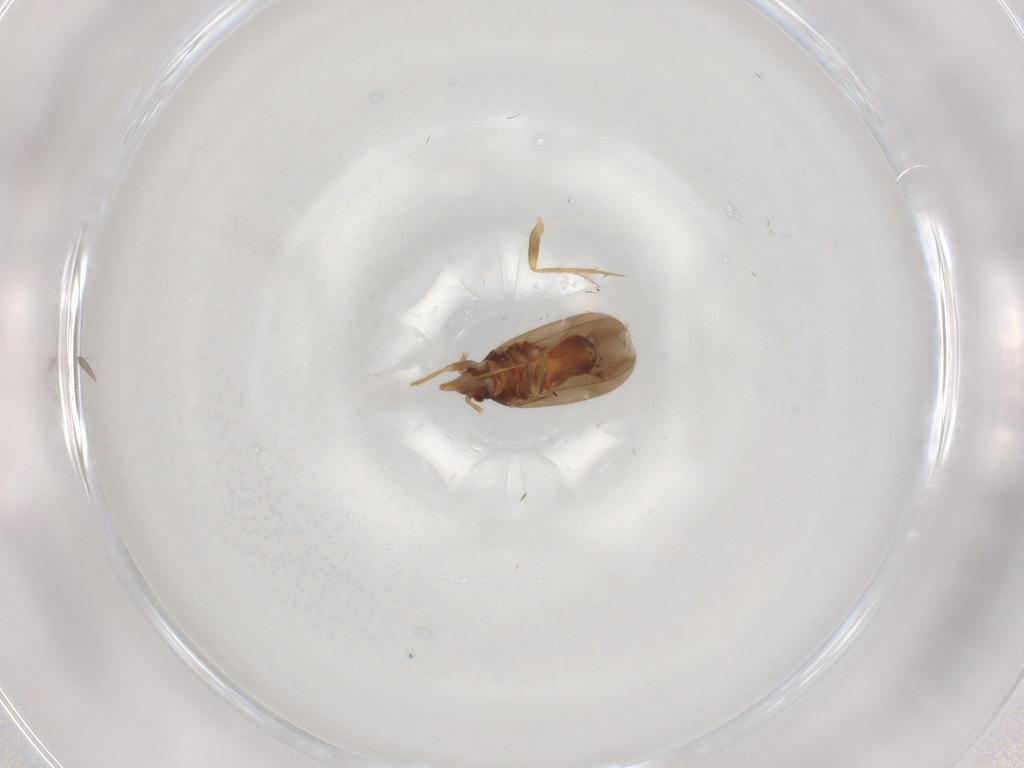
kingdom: Animalia
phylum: Arthropoda
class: Insecta
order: Hemiptera
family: Ceratocombidae
